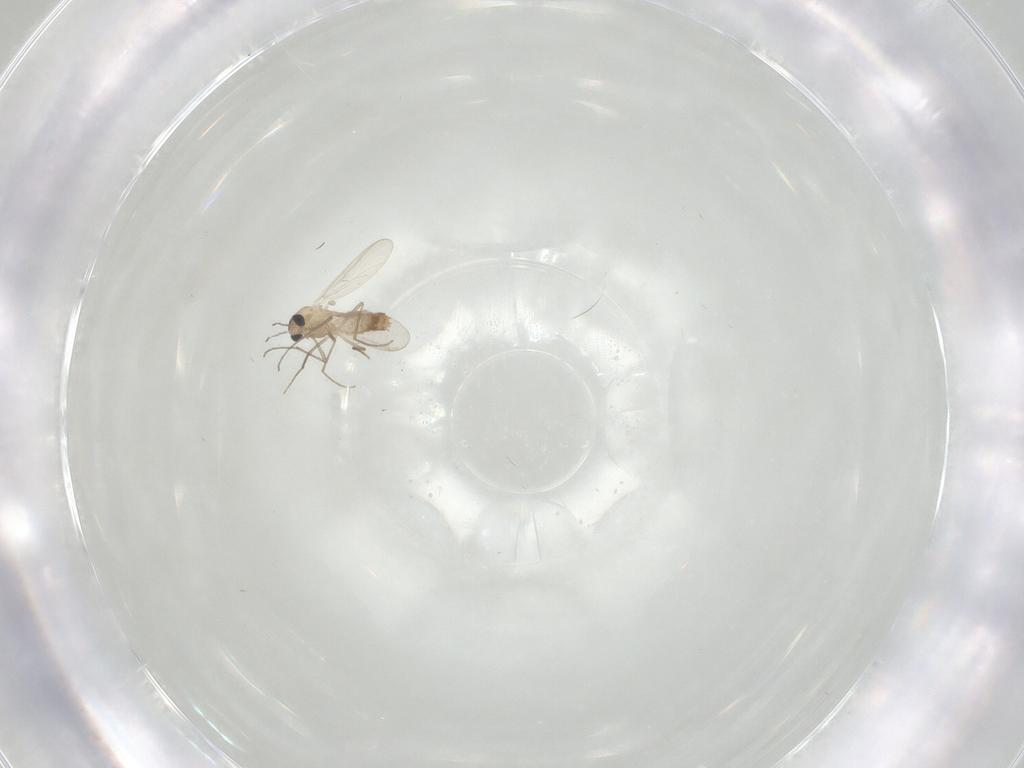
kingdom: Animalia
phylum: Arthropoda
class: Insecta
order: Diptera
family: Chironomidae
